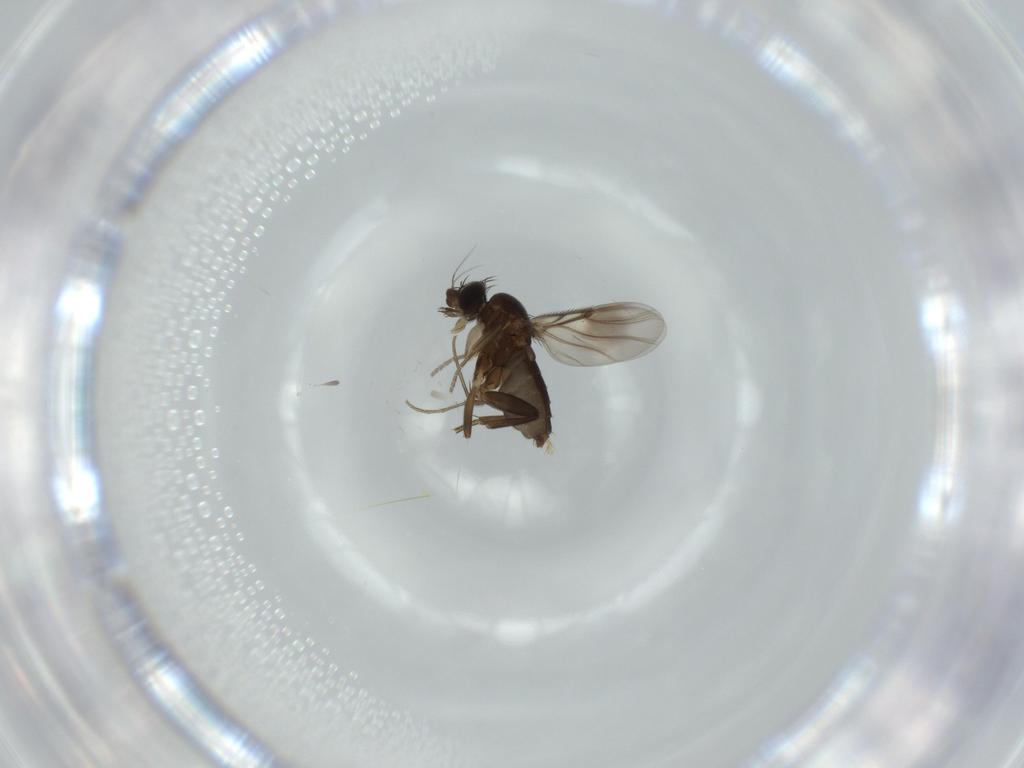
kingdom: Animalia
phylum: Arthropoda
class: Insecta
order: Diptera
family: Phoridae
